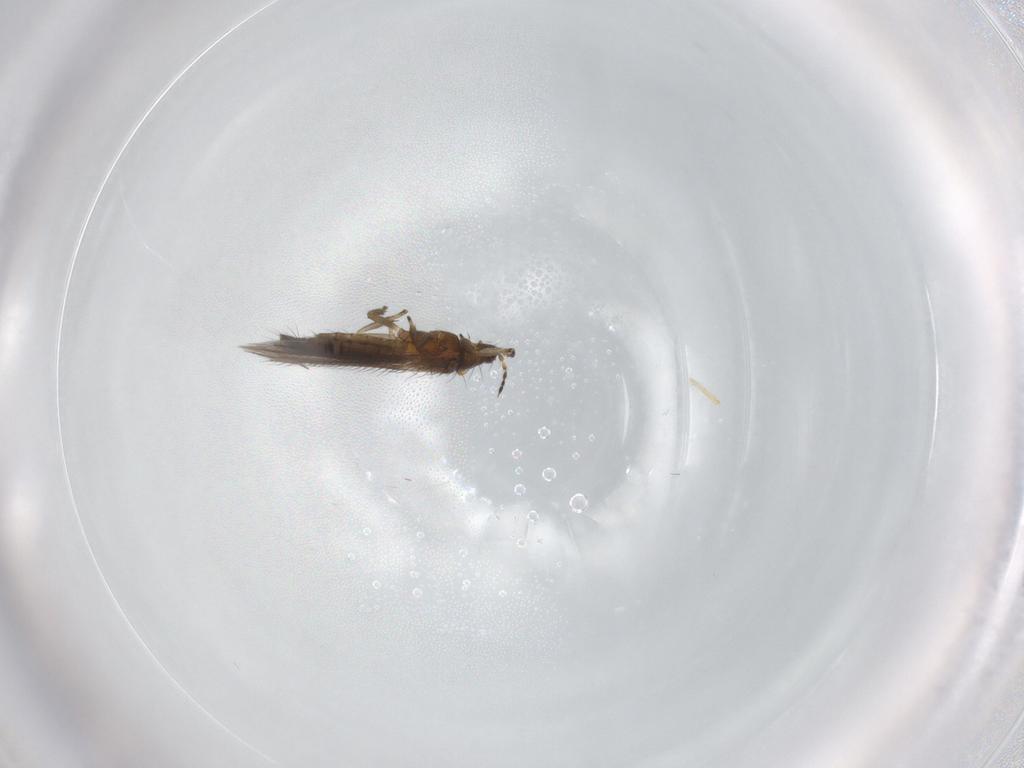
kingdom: Animalia
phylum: Arthropoda
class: Insecta
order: Thysanoptera
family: Thripidae
